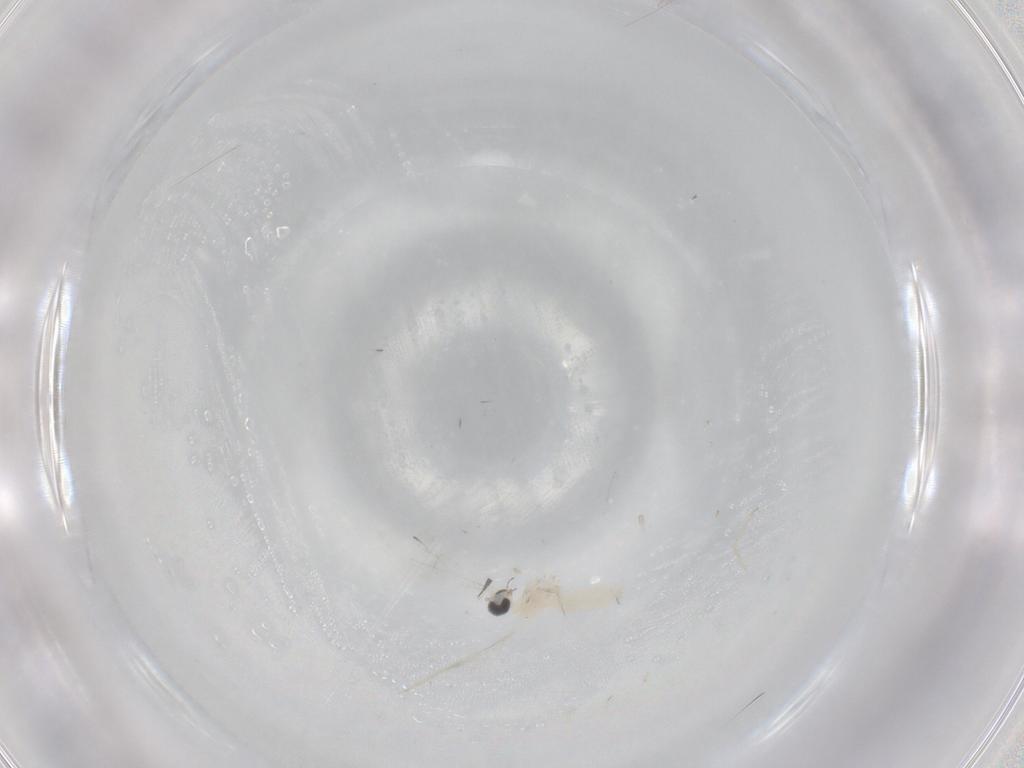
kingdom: Animalia
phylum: Arthropoda
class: Insecta
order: Diptera
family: Cecidomyiidae
